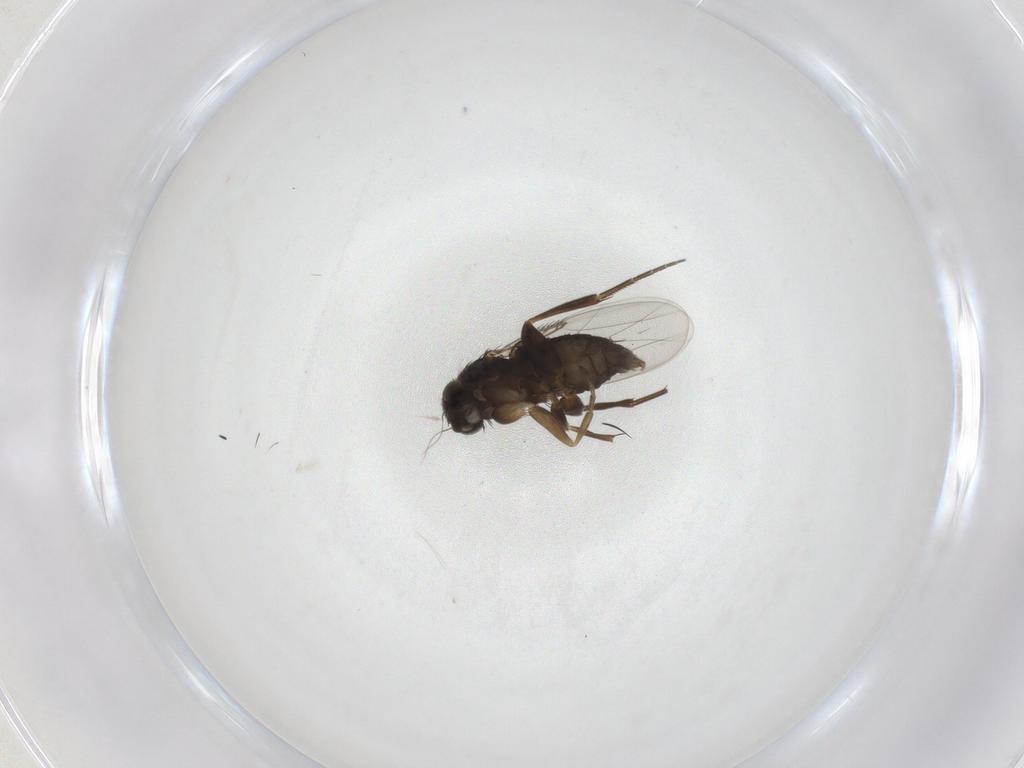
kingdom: Animalia
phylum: Arthropoda
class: Insecta
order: Diptera
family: Phoridae
